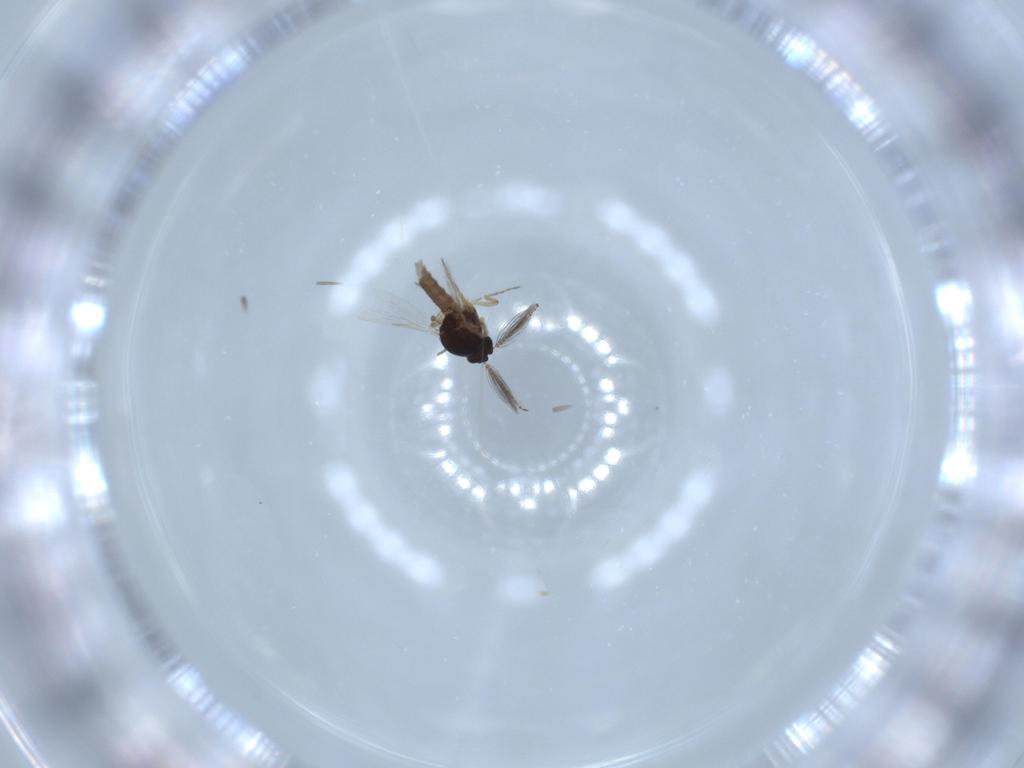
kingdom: Animalia
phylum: Arthropoda
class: Insecta
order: Diptera
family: Ceratopogonidae
